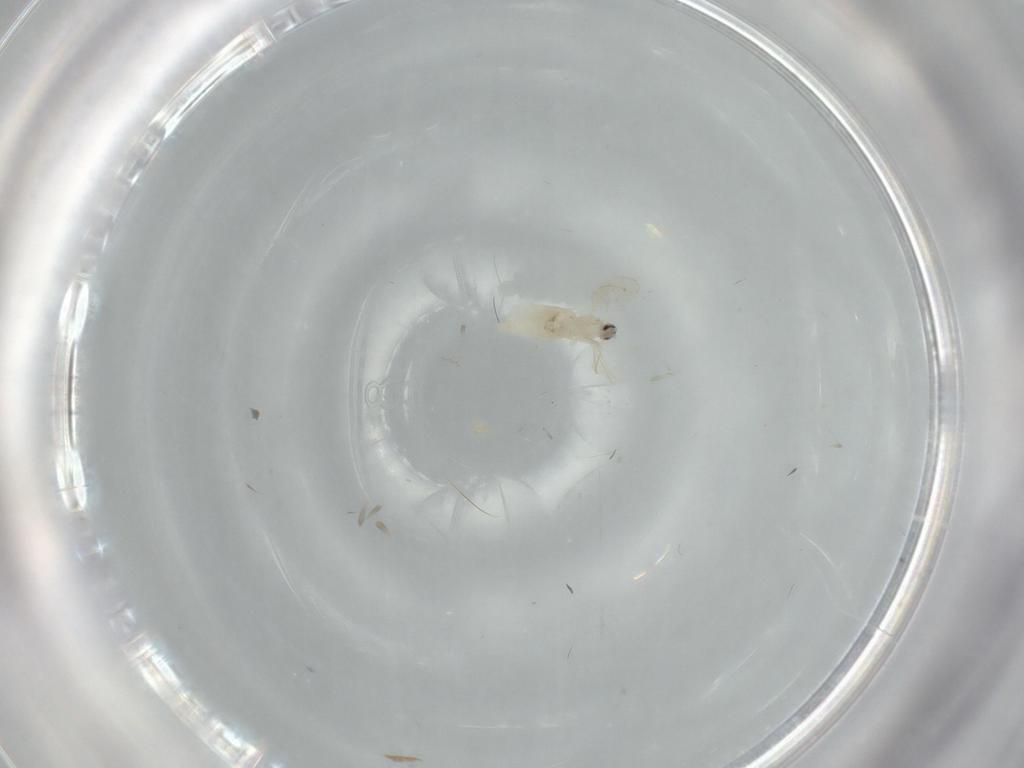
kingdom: Animalia
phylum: Arthropoda
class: Insecta
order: Diptera
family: Cecidomyiidae
